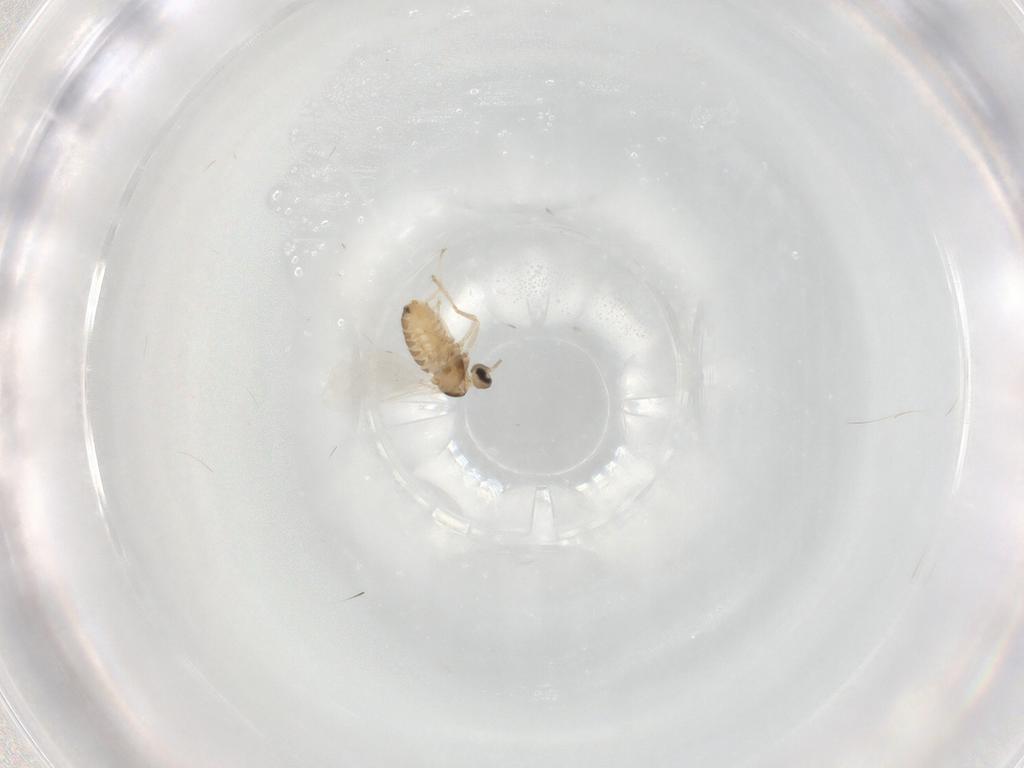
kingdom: Animalia
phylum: Arthropoda
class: Insecta
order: Diptera
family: Cecidomyiidae
